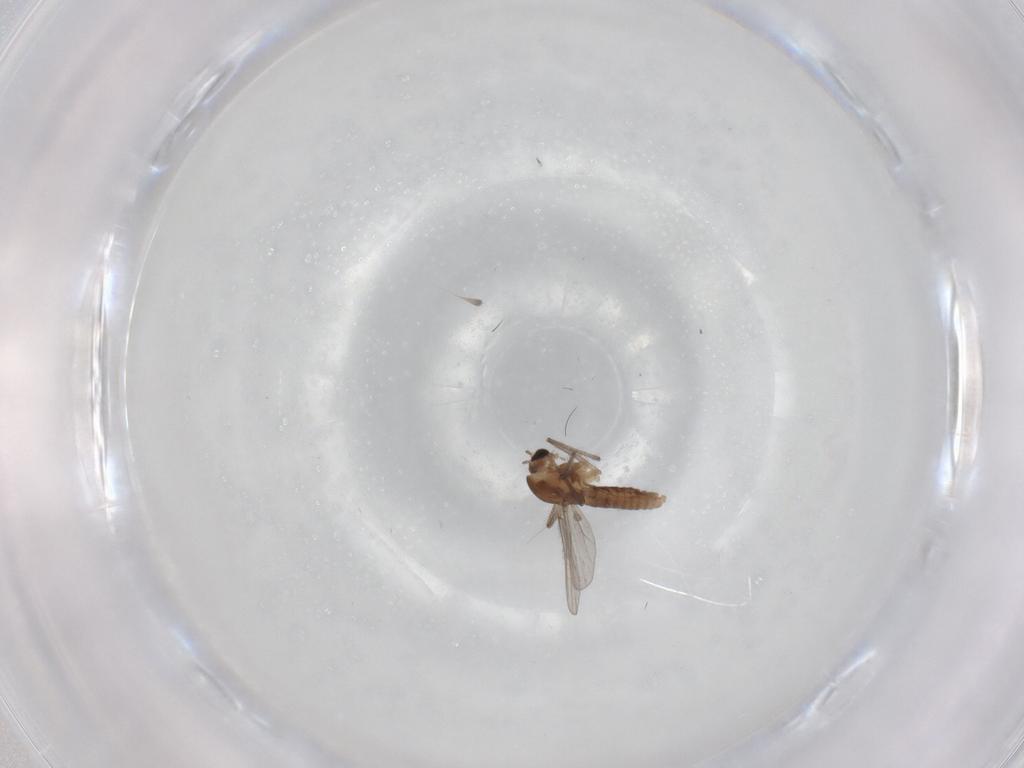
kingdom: Animalia
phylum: Arthropoda
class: Insecta
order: Diptera
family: Chironomidae
